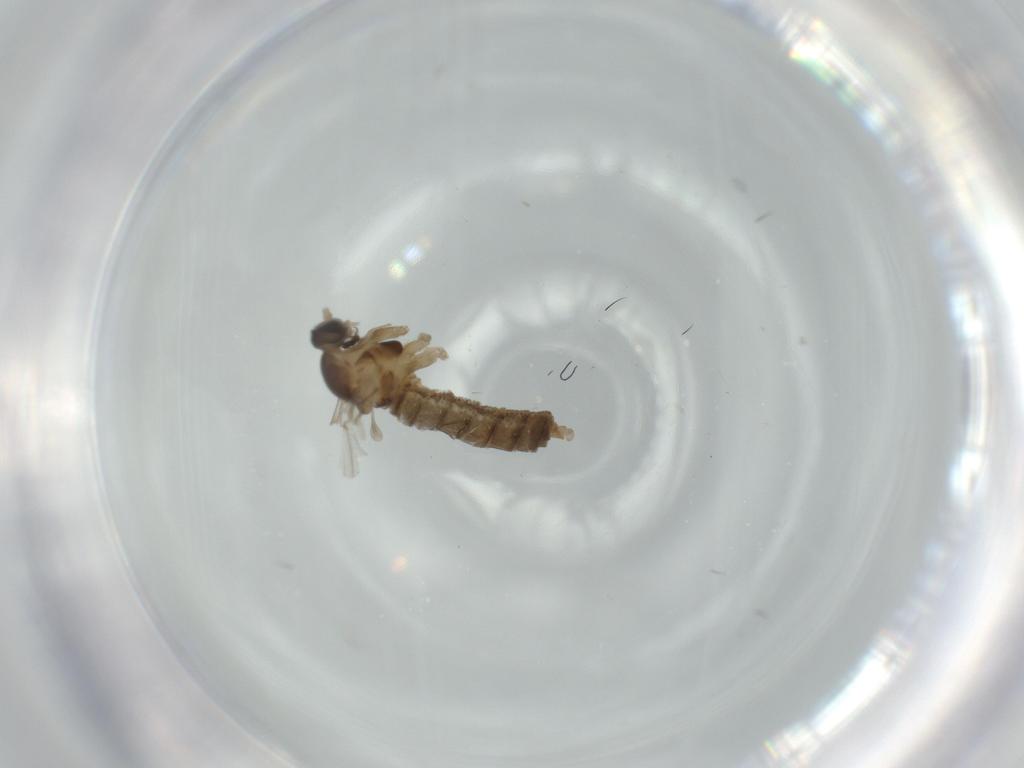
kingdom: Animalia
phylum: Arthropoda
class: Insecta
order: Diptera
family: Cecidomyiidae
